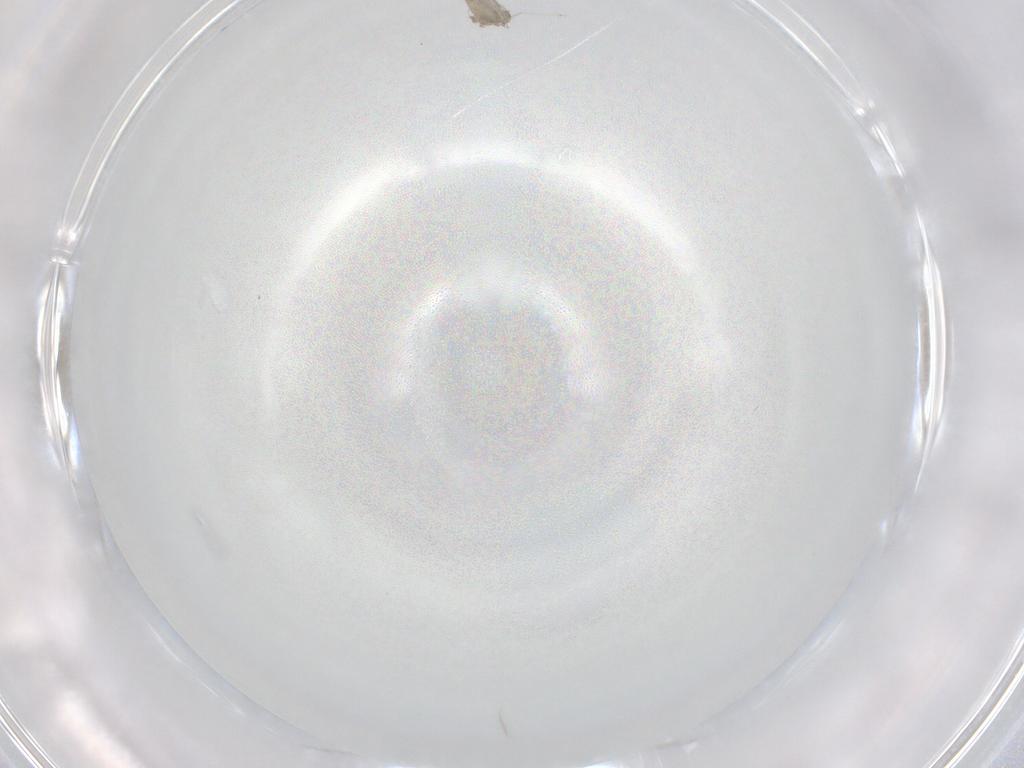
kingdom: Animalia
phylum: Arthropoda
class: Insecta
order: Diptera
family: Cecidomyiidae
